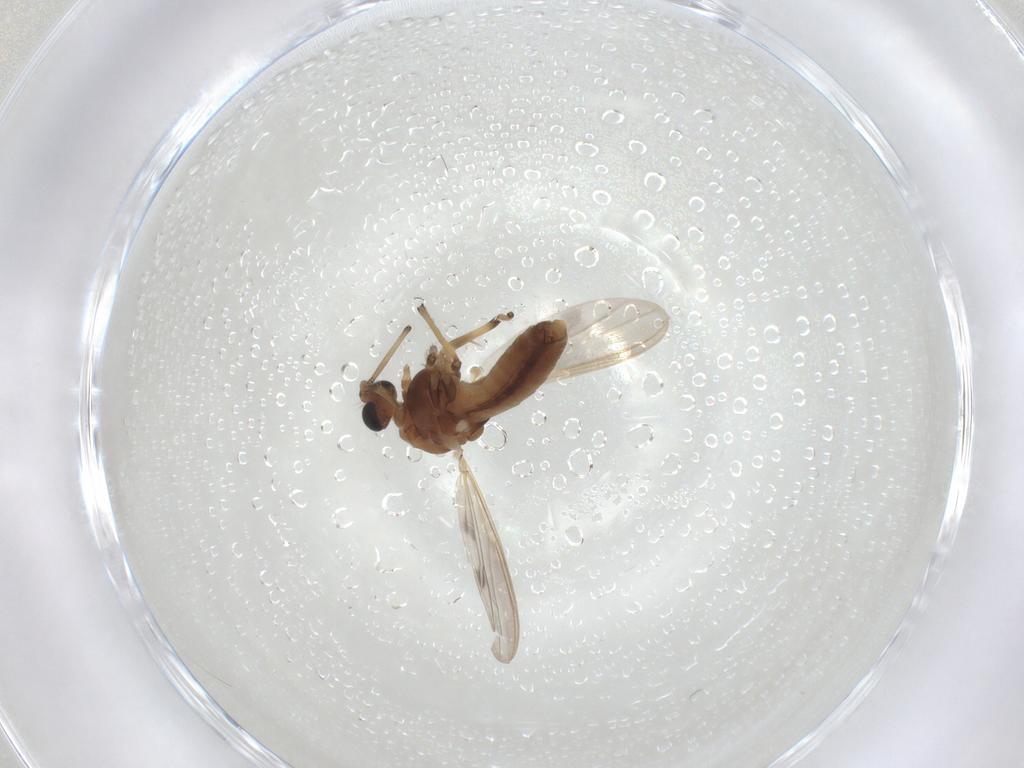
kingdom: Animalia
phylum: Arthropoda
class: Insecta
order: Diptera
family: Chironomidae
